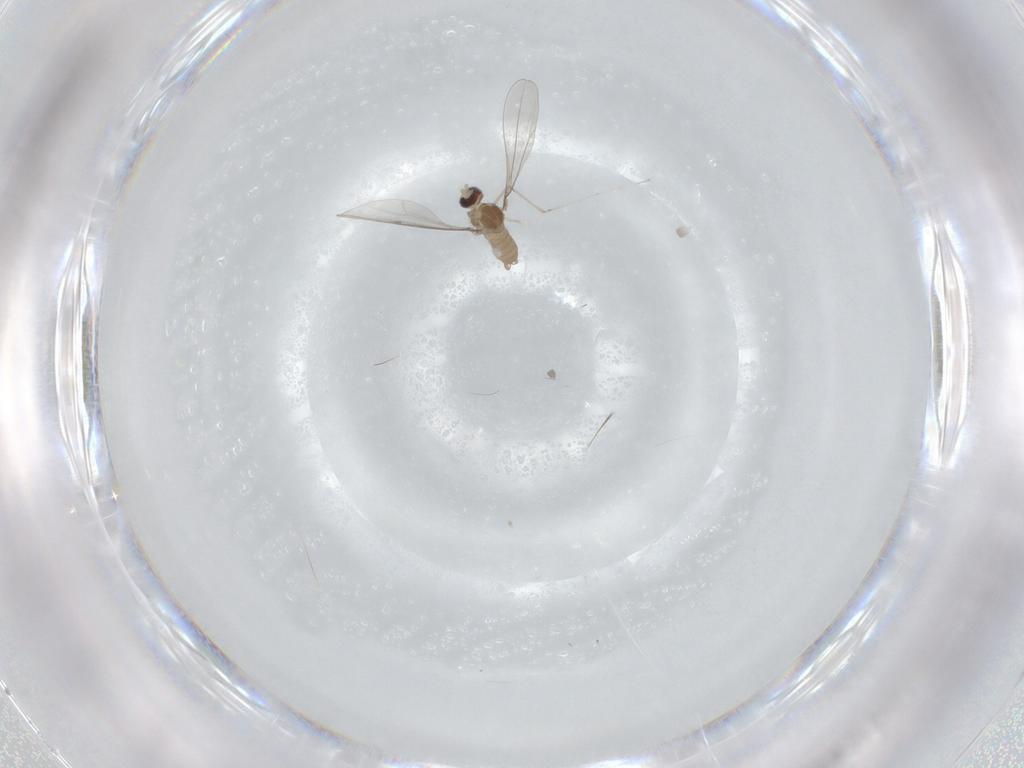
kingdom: Animalia
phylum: Arthropoda
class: Insecta
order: Diptera
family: Cecidomyiidae
